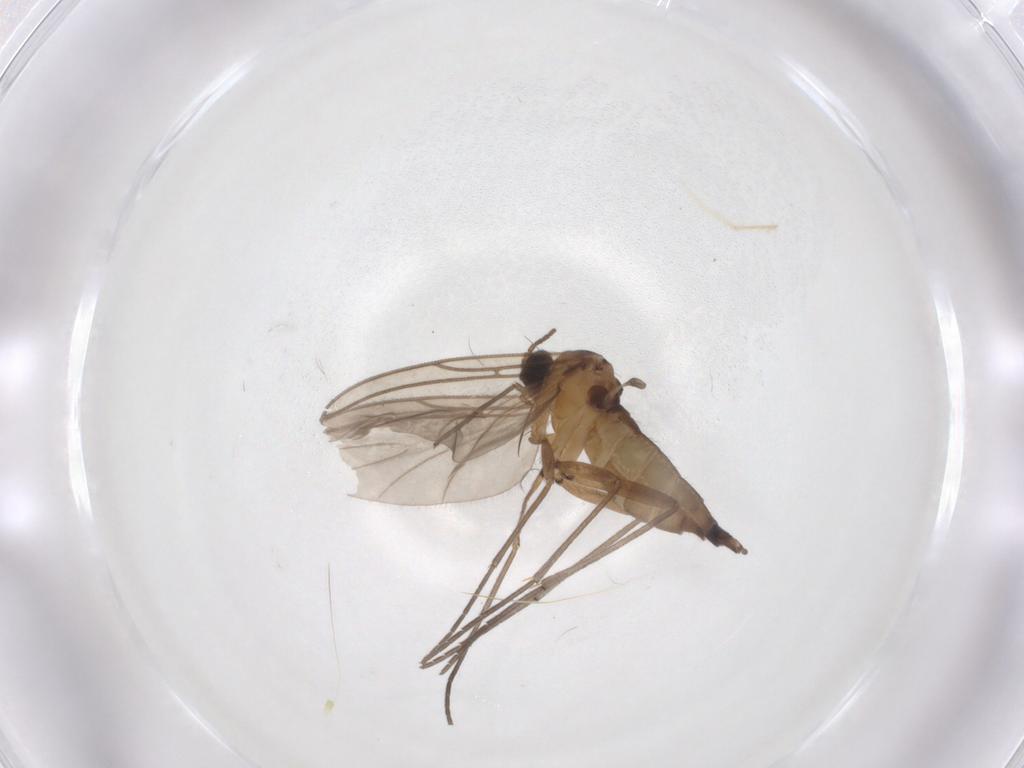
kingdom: Animalia
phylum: Arthropoda
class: Insecta
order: Diptera
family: Sciaridae
